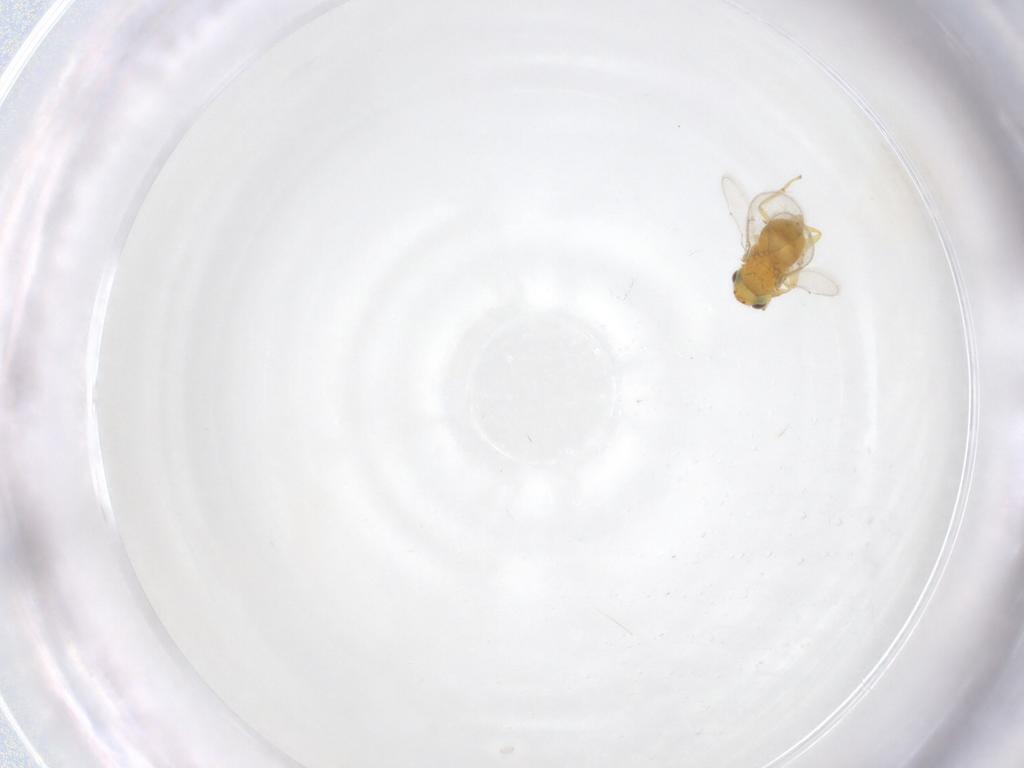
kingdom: Animalia
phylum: Arthropoda
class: Insecta
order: Hymenoptera
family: Aphelinidae
